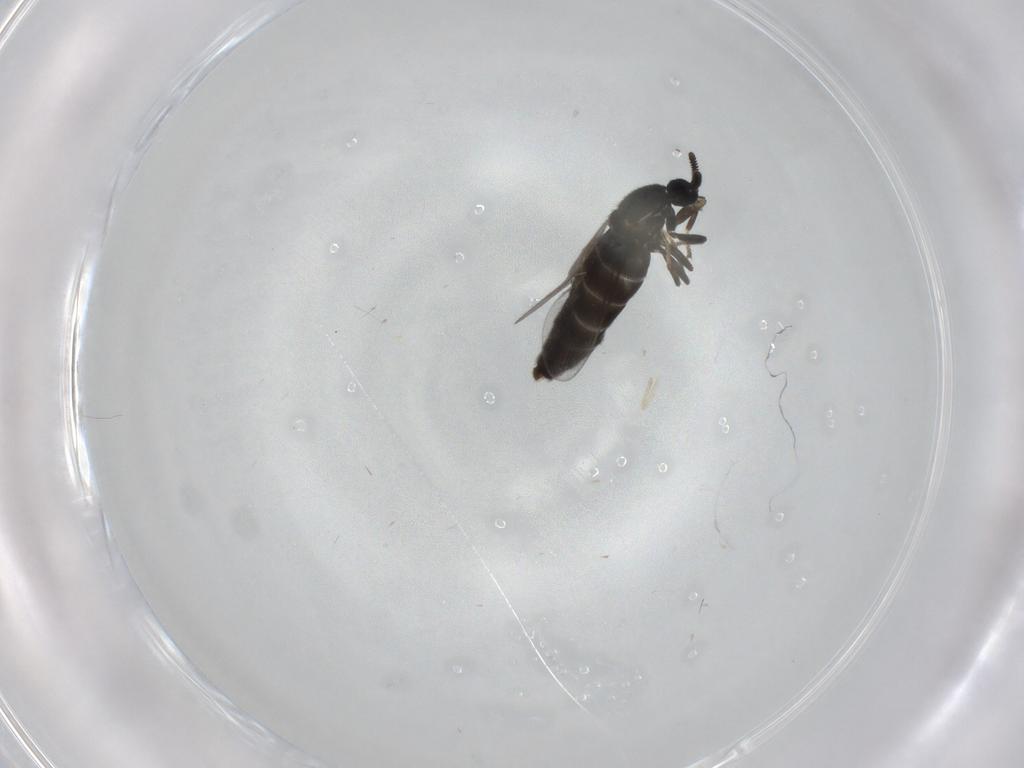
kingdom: Animalia
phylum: Arthropoda
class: Insecta
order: Diptera
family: Scatopsidae
